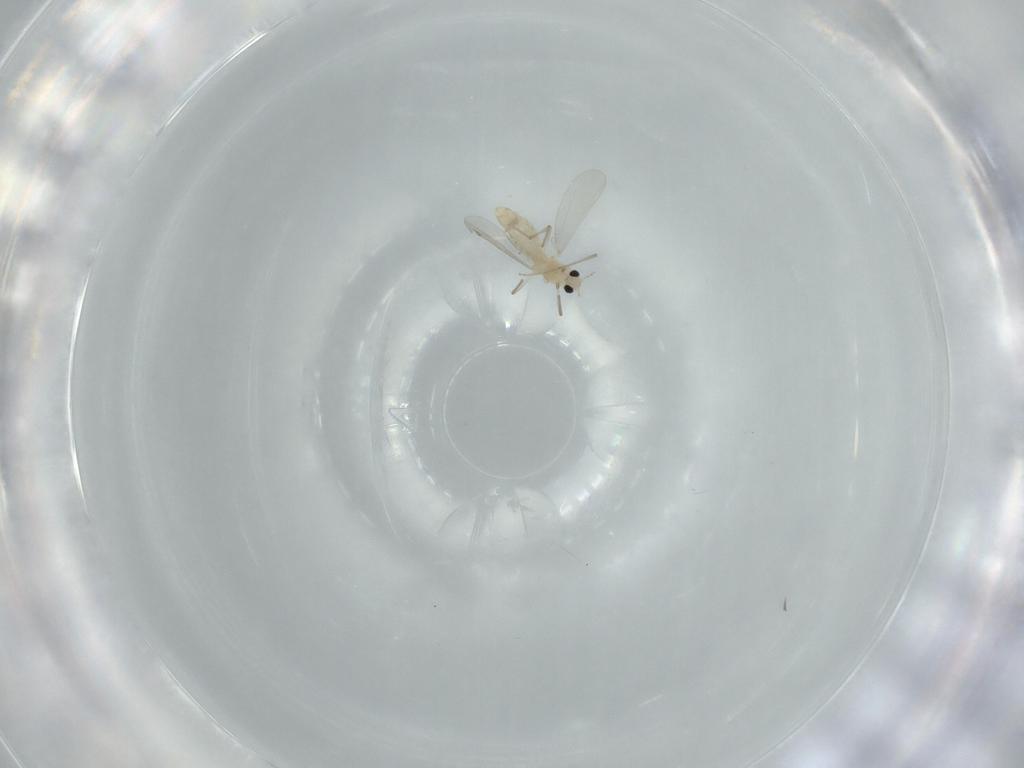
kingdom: Animalia
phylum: Arthropoda
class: Insecta
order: Diptera
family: Chironomidae
